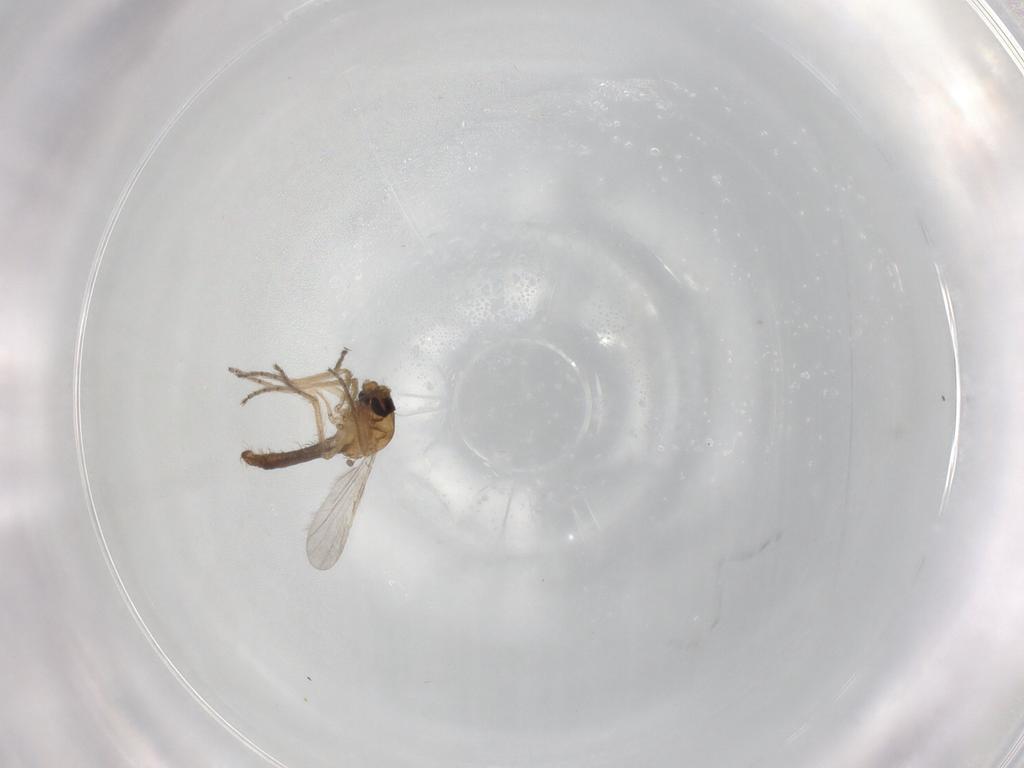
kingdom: Animalia
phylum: Arthropoda
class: Insecta
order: Diptera
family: Ceratopogonidae
